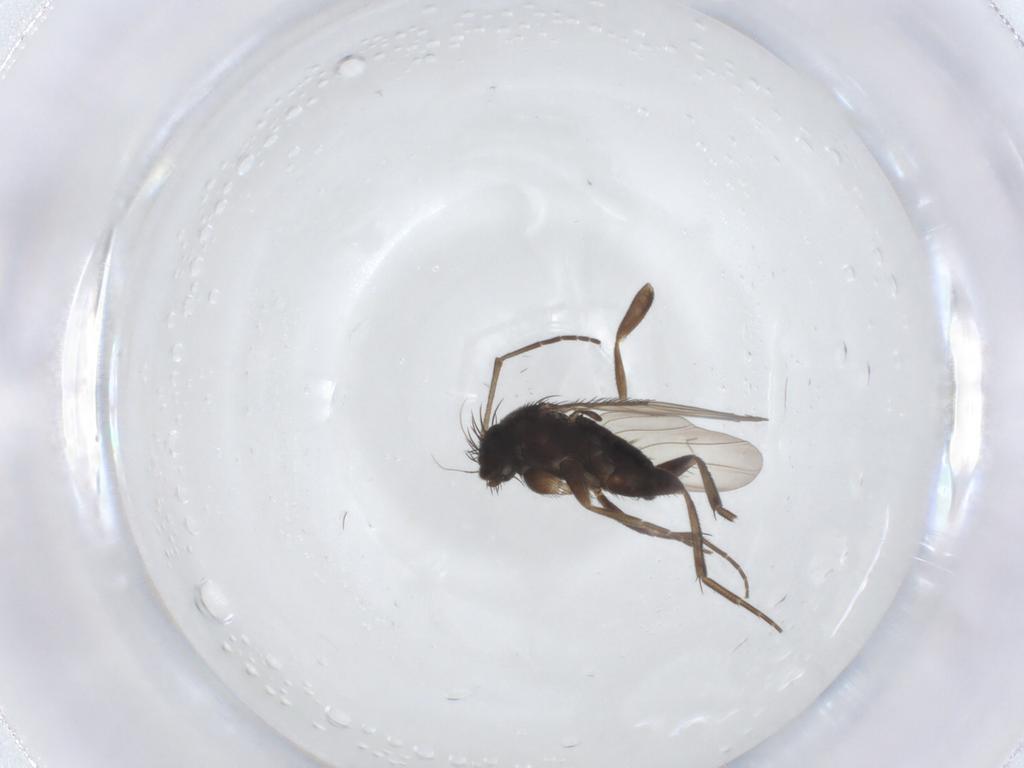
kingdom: Animalia
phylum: Arthropoda
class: Insecta
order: Diptera
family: Phoridae
